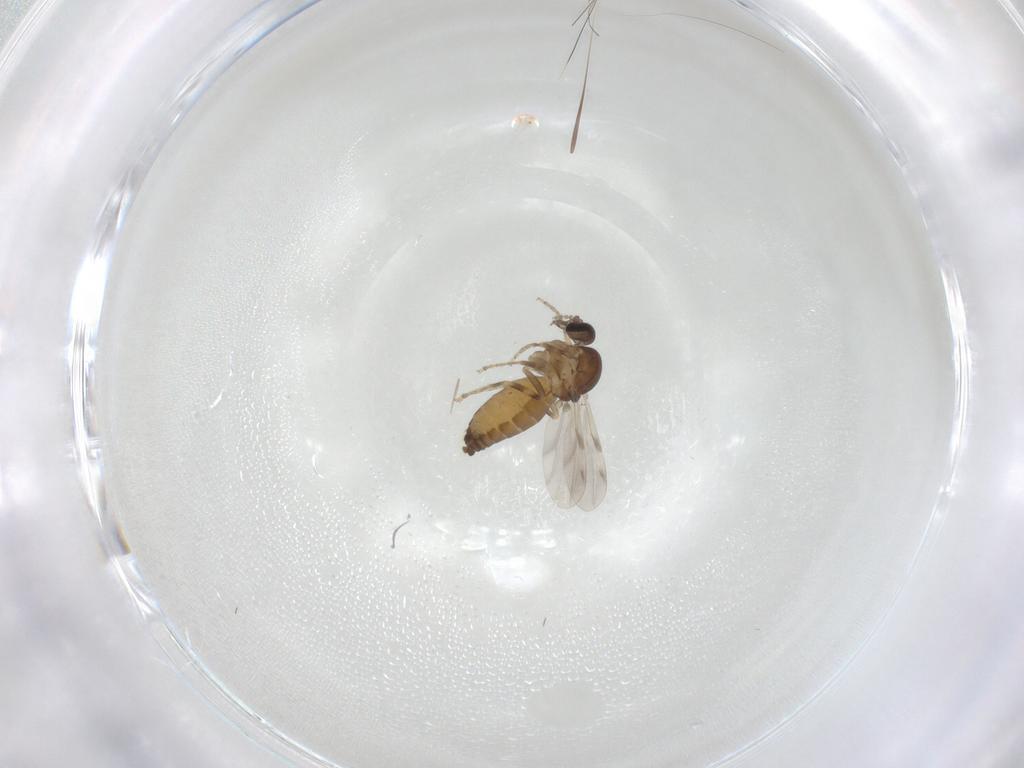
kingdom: Animalia
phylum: Arthropoda
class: Insecta
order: Diptera
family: Ceratopogonidae
